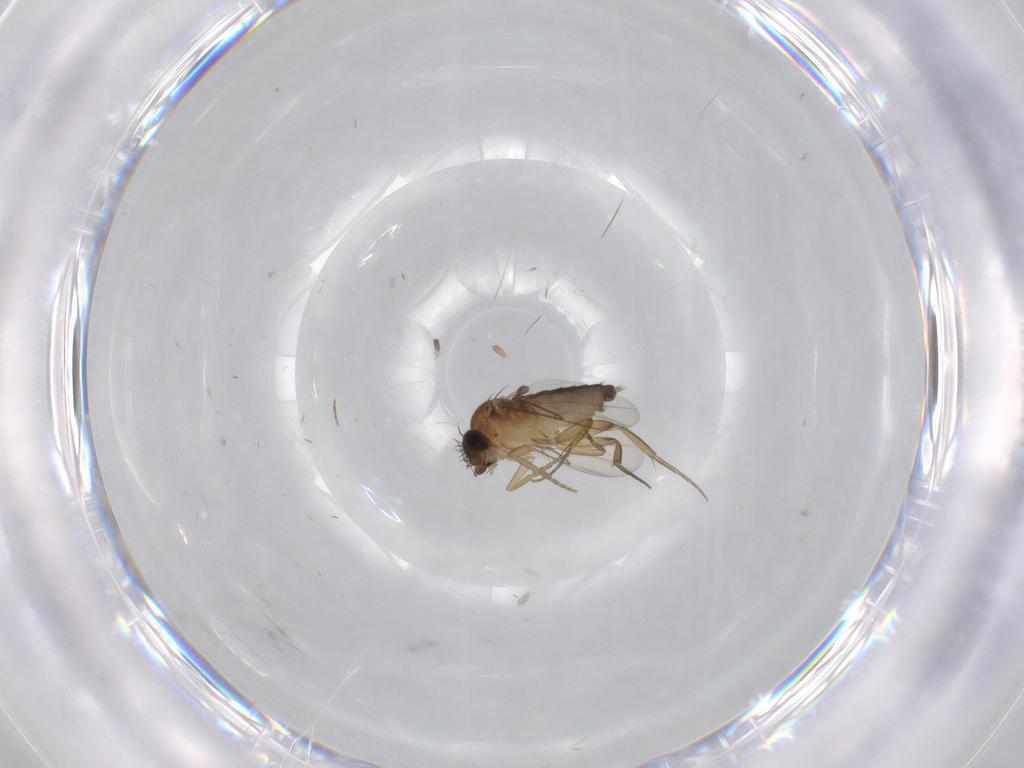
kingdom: Animalia
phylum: Arthropoda
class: Insecta
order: Diptera
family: Phoridae
